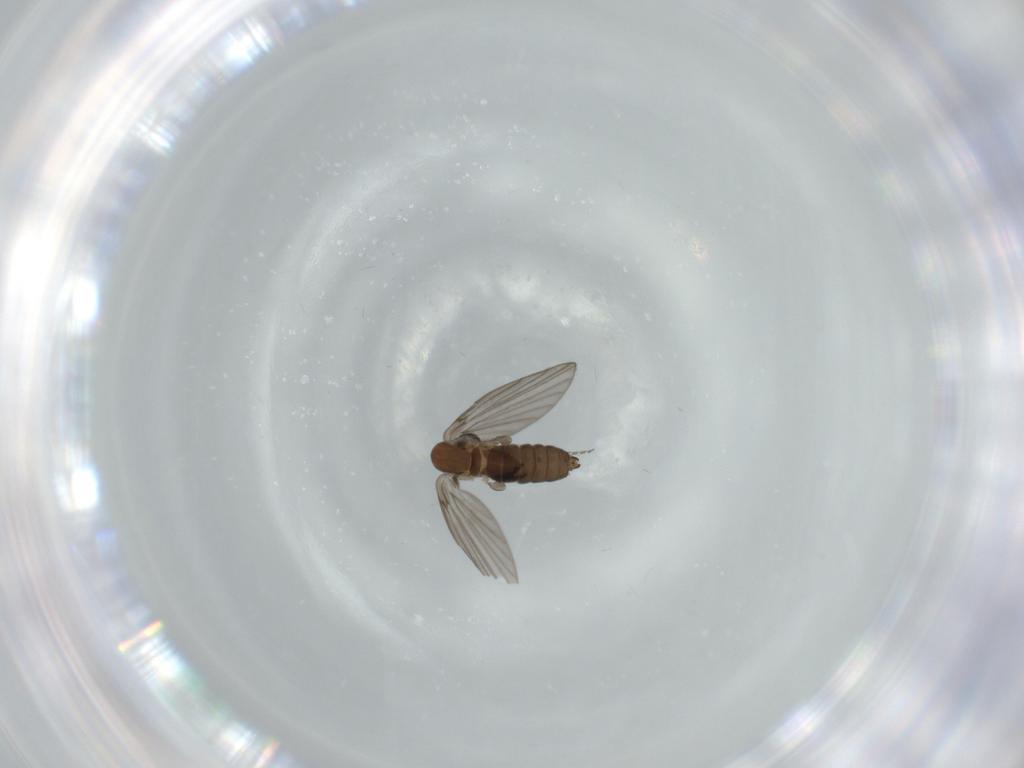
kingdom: Animalia
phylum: Arthropoda
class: Insecta
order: Diptera
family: Psychodidae
